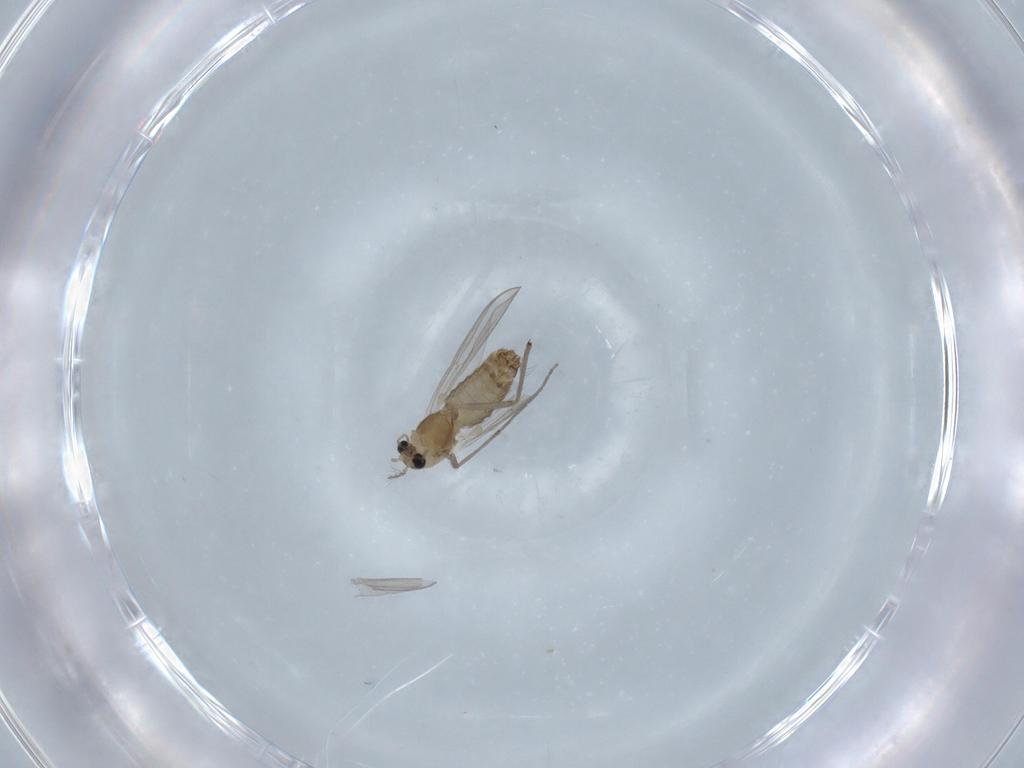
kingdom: Animalia
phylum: Arthropoda
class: Insecta
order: Diptera
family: Chironomidae
